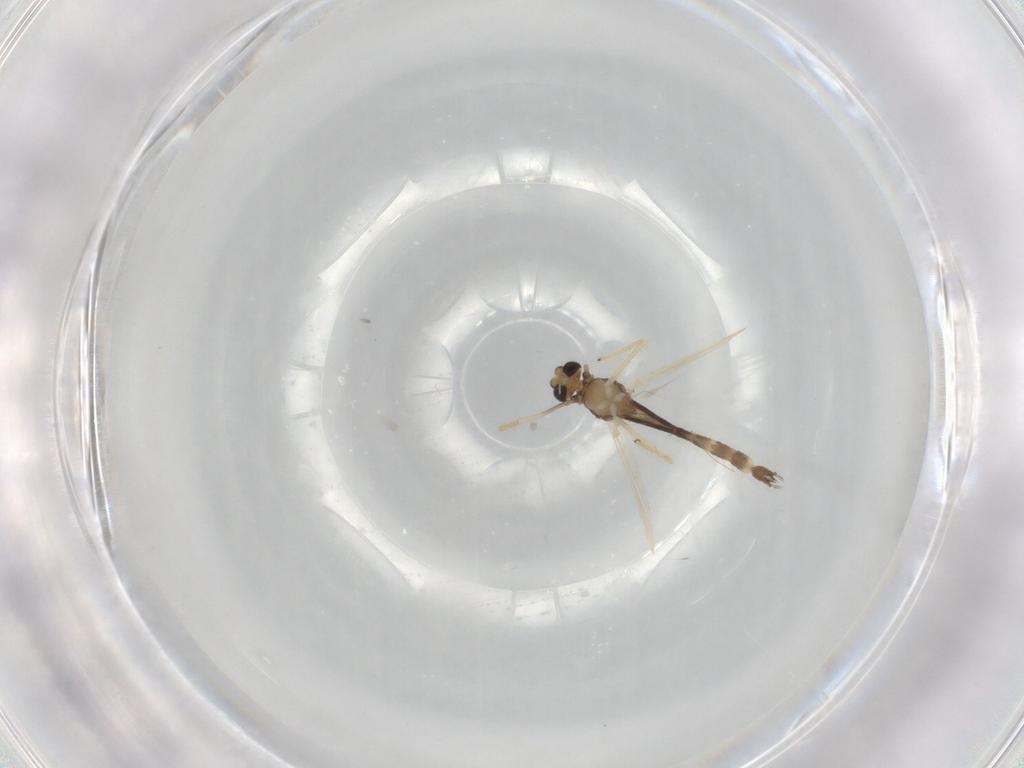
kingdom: Animalia
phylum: Arthropoda
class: Insecta
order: Diptera
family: Chironomidae
